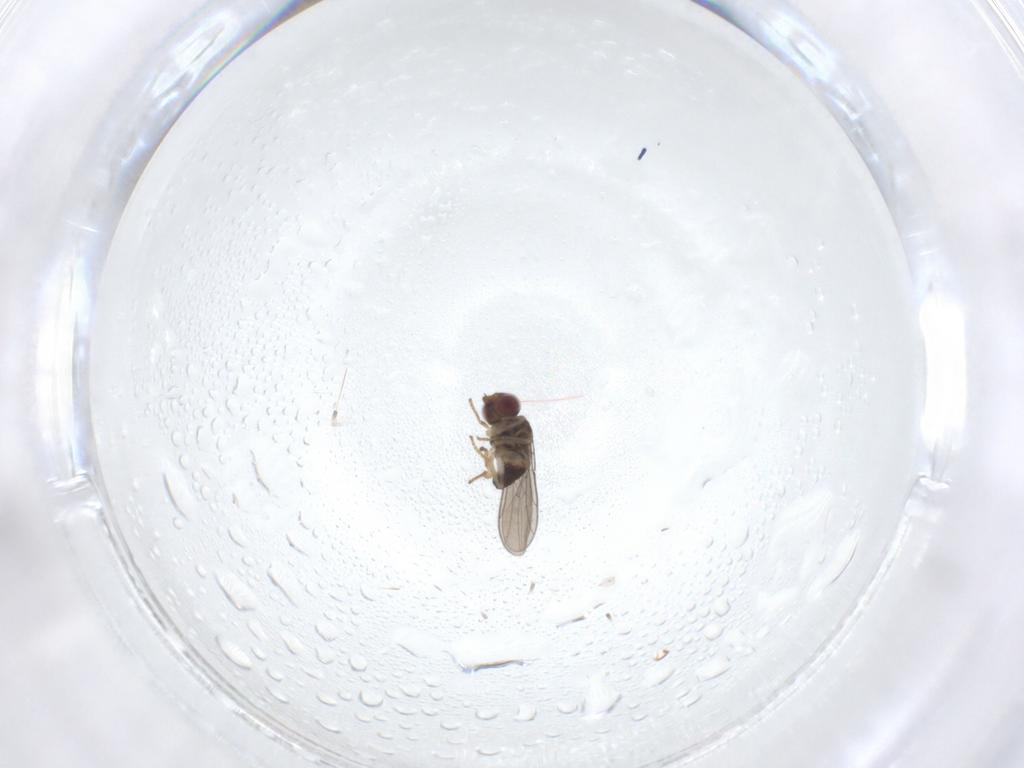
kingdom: Animalia
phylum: Arthropoda
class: Insecta
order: Diptera
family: Chloropidae
